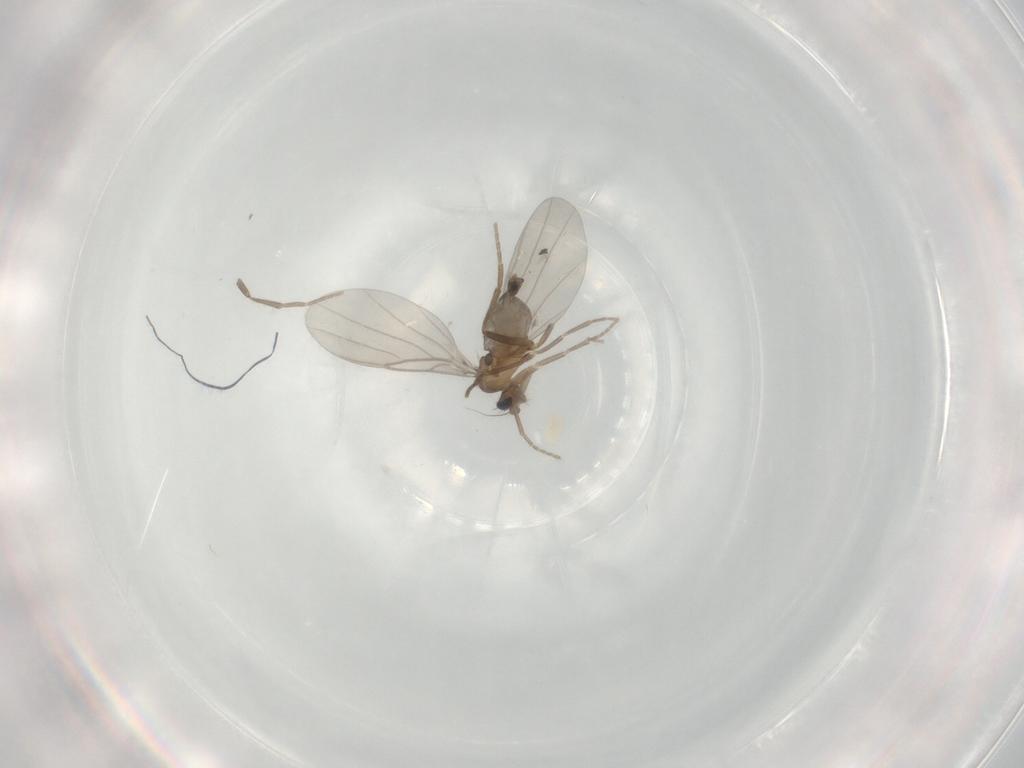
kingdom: Animalia
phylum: Arthropoda
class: Insecta
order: Diptera
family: Phoridae
